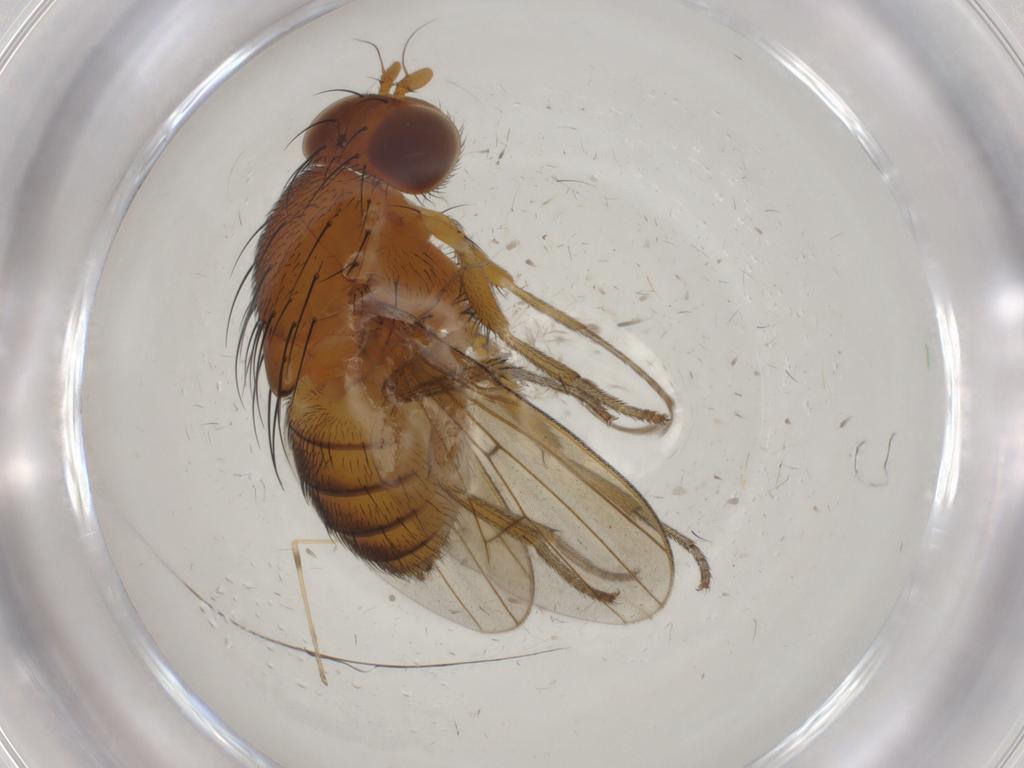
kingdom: Animalia
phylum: Arthropoda
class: Insecta
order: Diptera
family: Limoniidae
